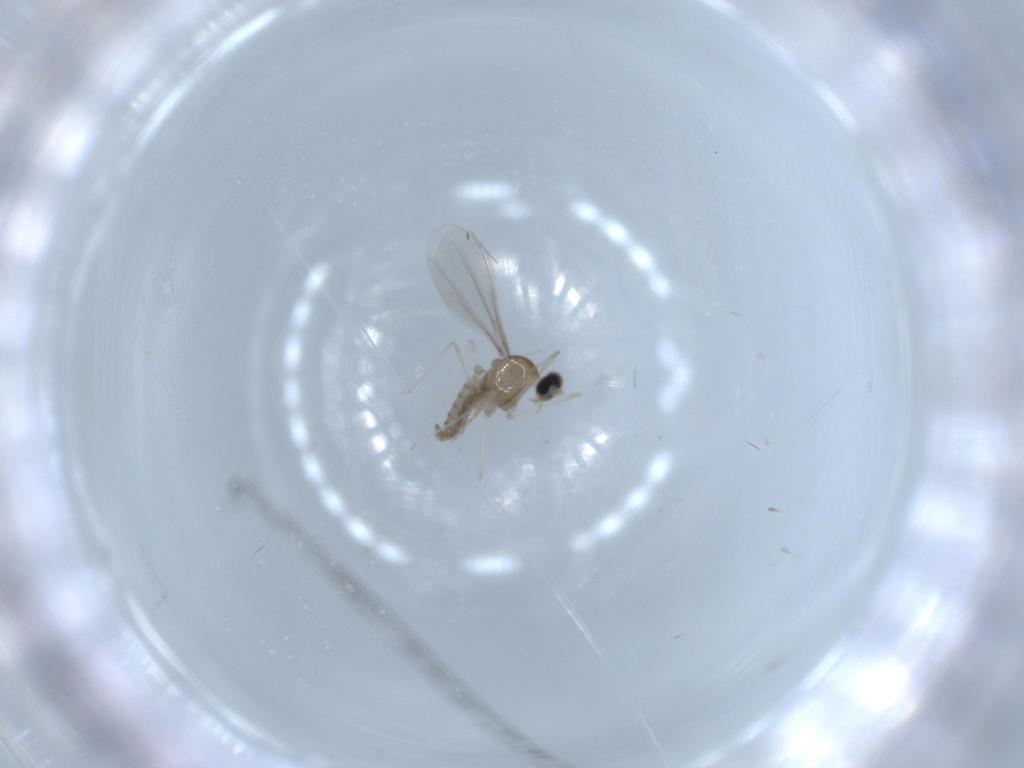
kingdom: Animalia
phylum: Arthropoda
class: Insecta
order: Diptera
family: Cecidomyiidae
